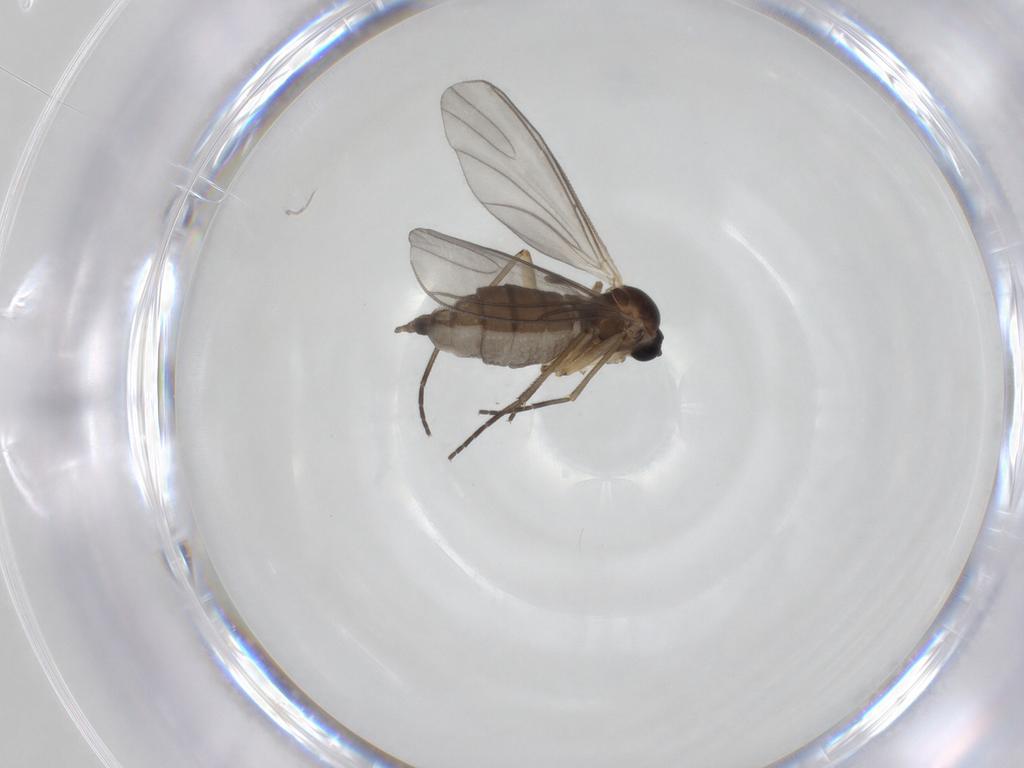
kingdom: Animalia
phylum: Arthropoda
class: Insecta
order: Diptera
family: Sciaridae
